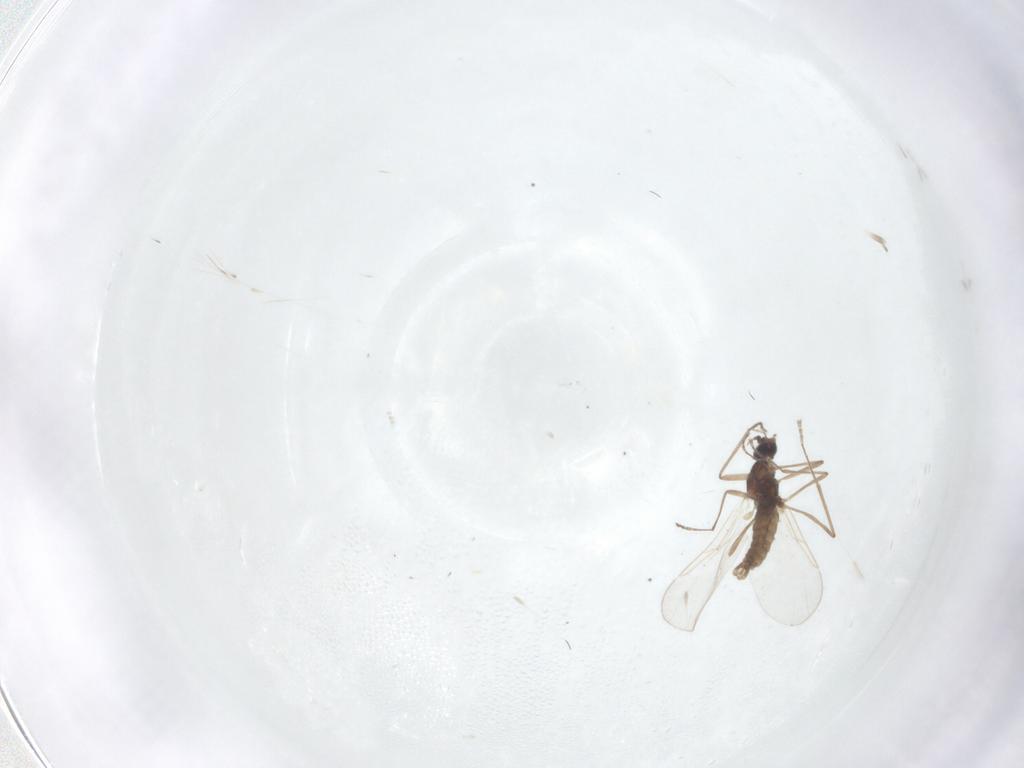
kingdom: Animalia
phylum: Arthropoda
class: Insecta
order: Diptera
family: Cecidomyiidae
